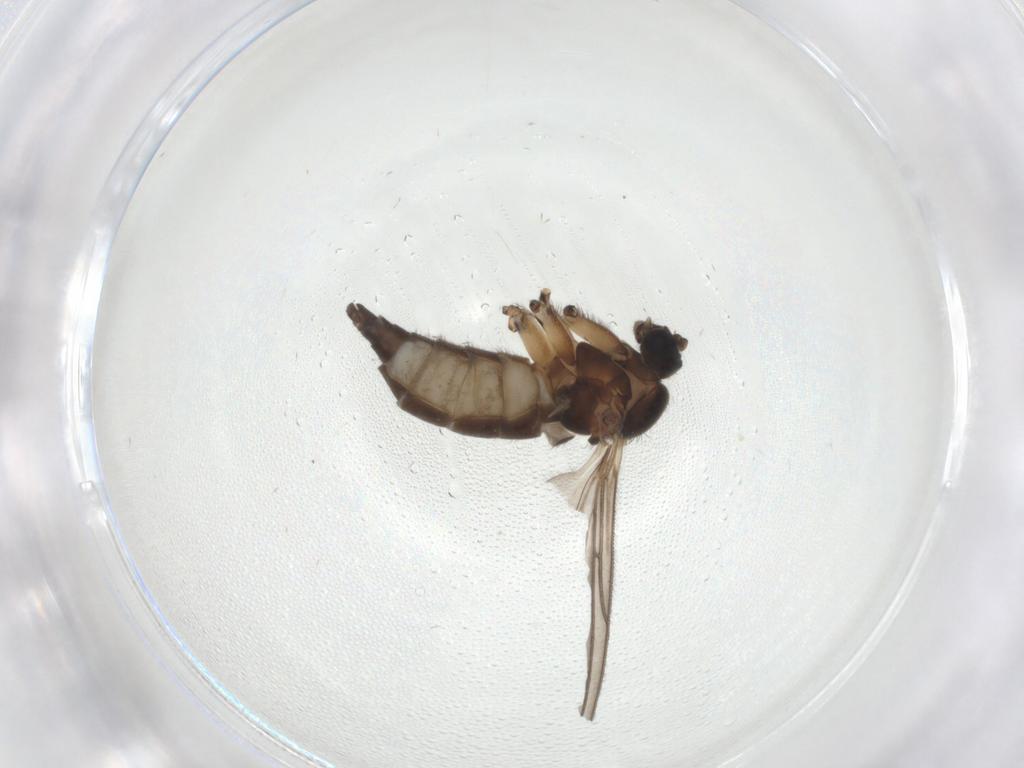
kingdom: Animalia
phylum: Arthropoda
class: Insecta
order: Diptera
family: Sciaridae
